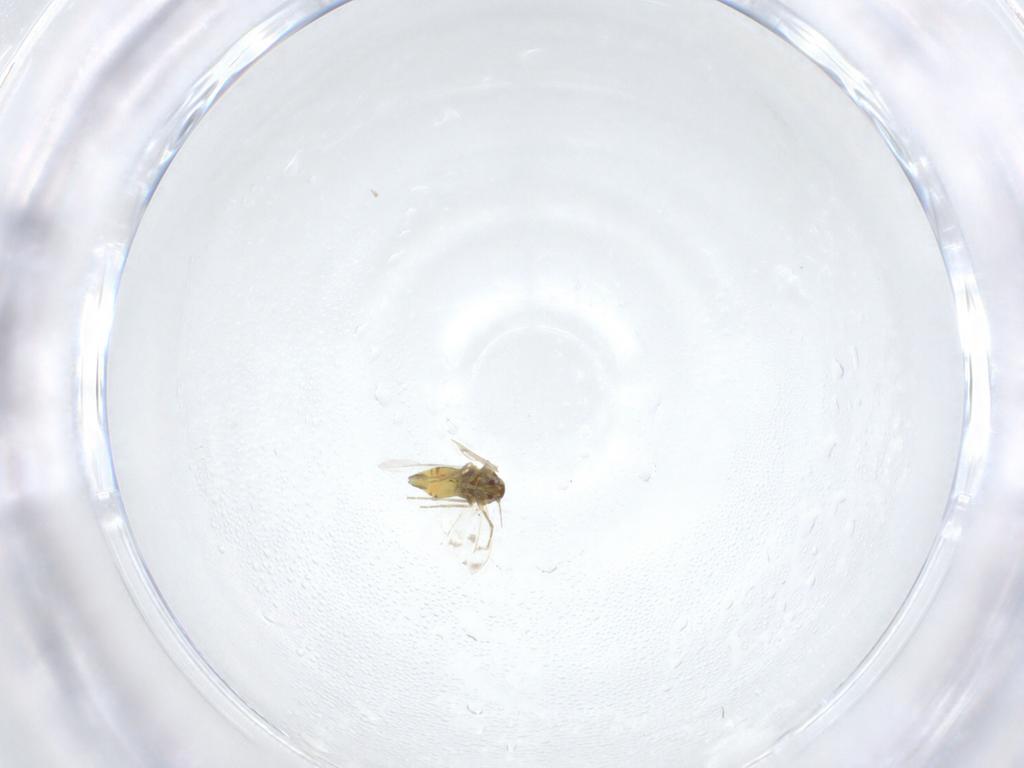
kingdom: Animalia
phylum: Arthropoda
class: Insecta
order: Hemiptera
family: Aleyrodidae
